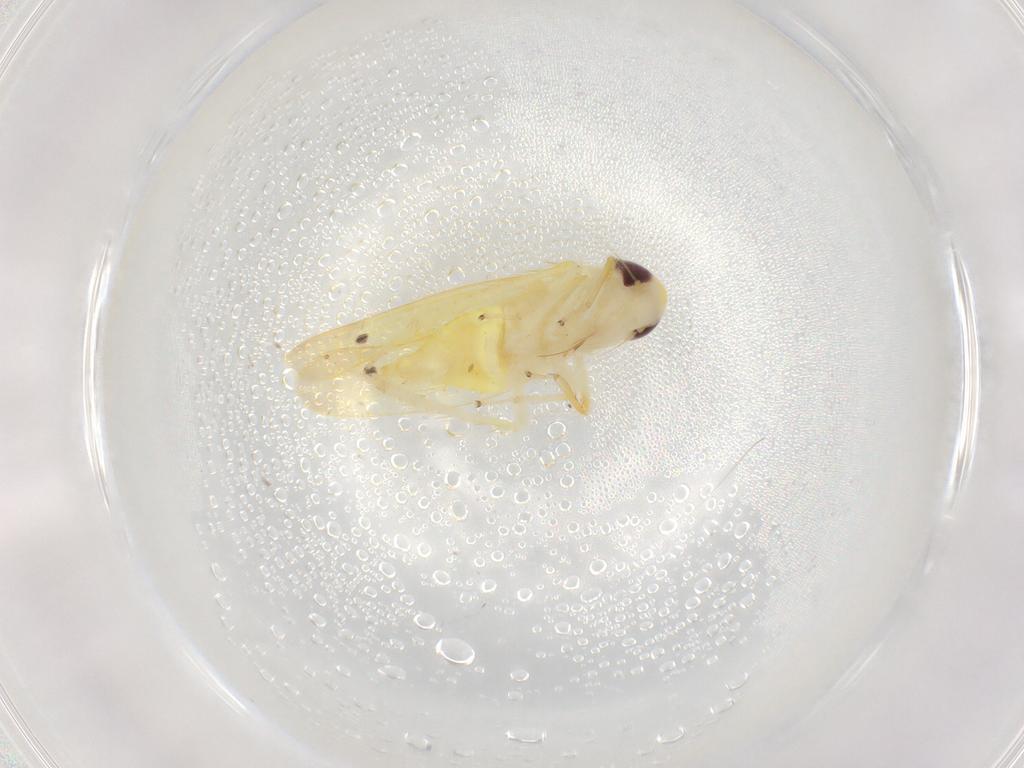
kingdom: Animalia
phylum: Arthropoda
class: Insecta
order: Hemiptera
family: Cicadellidae
